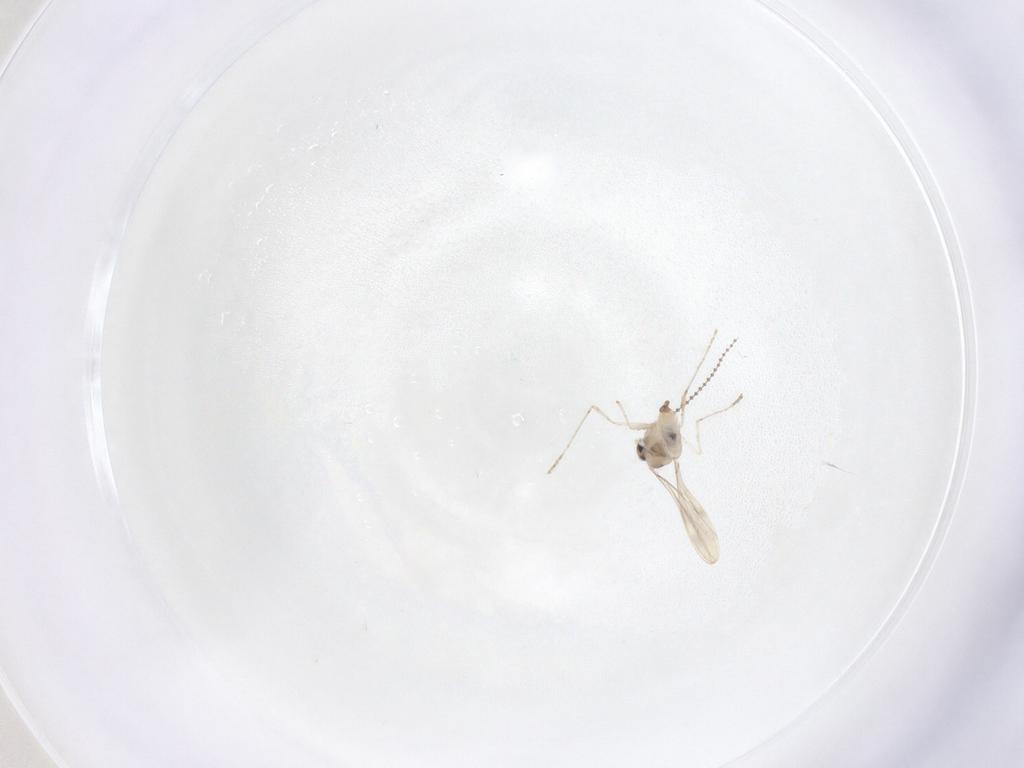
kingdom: Animalia
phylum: Arthropoda
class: Insecta
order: Diptera
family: Cecidomyiidae
